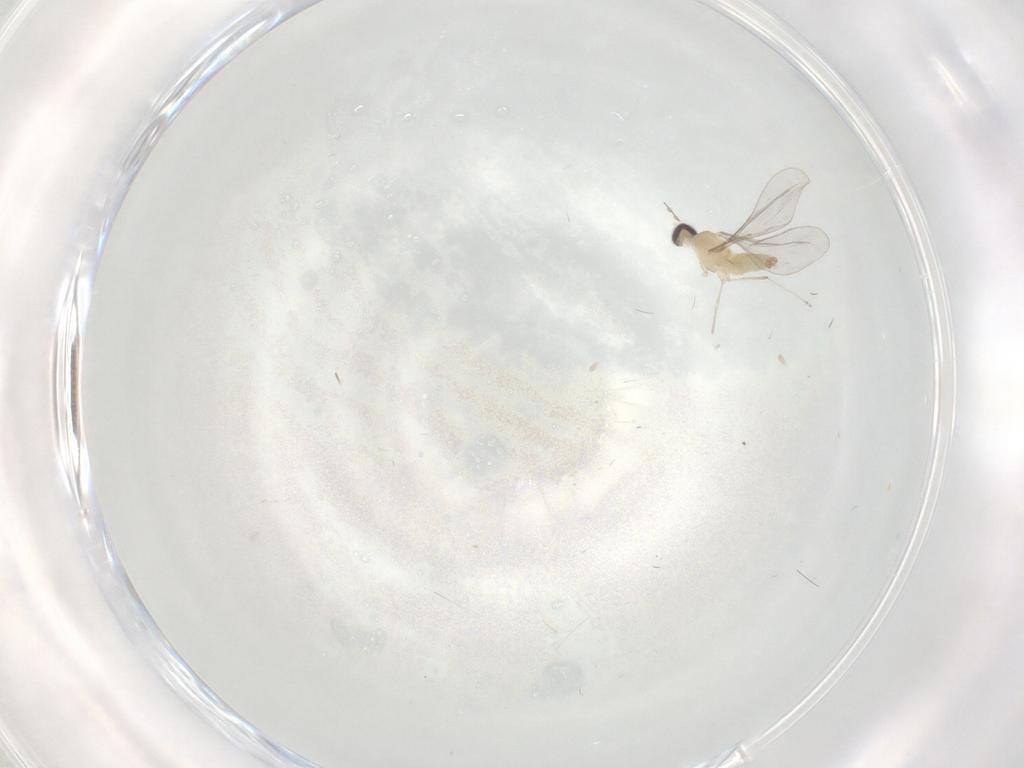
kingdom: Animalia
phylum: Arthropoda
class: Insecta
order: Diptera
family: Cecidomyiidae
